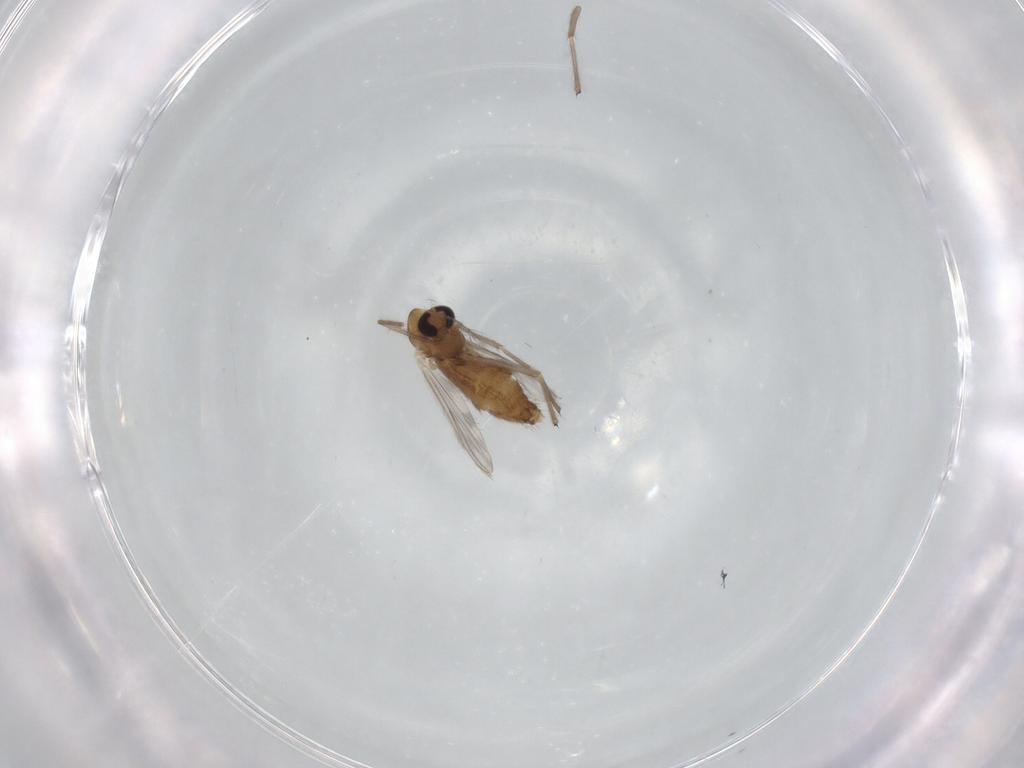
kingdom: Animalia
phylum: Arthropoda
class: Insecta
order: Diptera
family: Chironomidae
